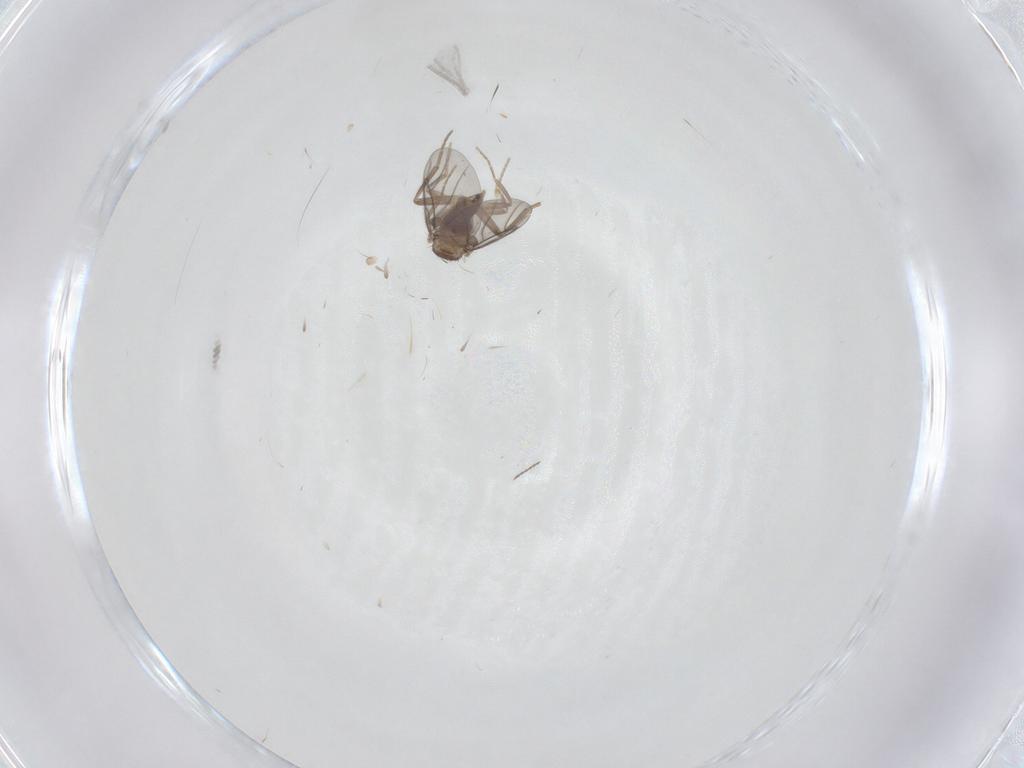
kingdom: Animalia
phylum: Arthropoda
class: Insecta
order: Diptera
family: Ceratopogonidae
